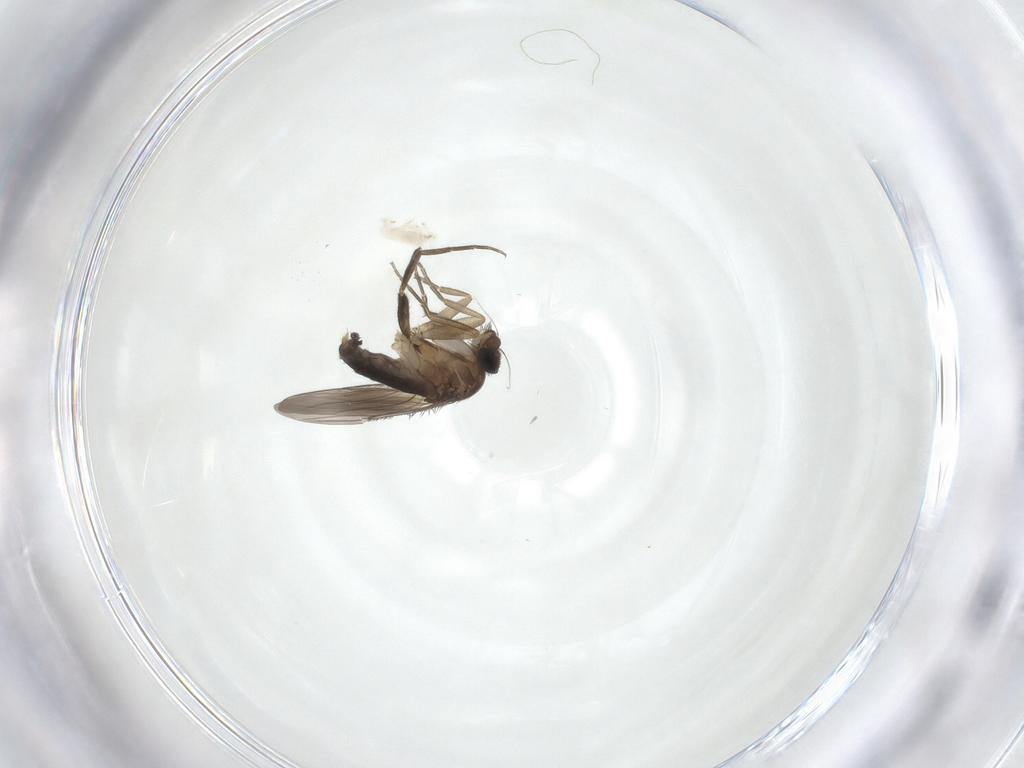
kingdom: Animalia
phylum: Arthropoda
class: Insecta
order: Diptera
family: Phoridae
